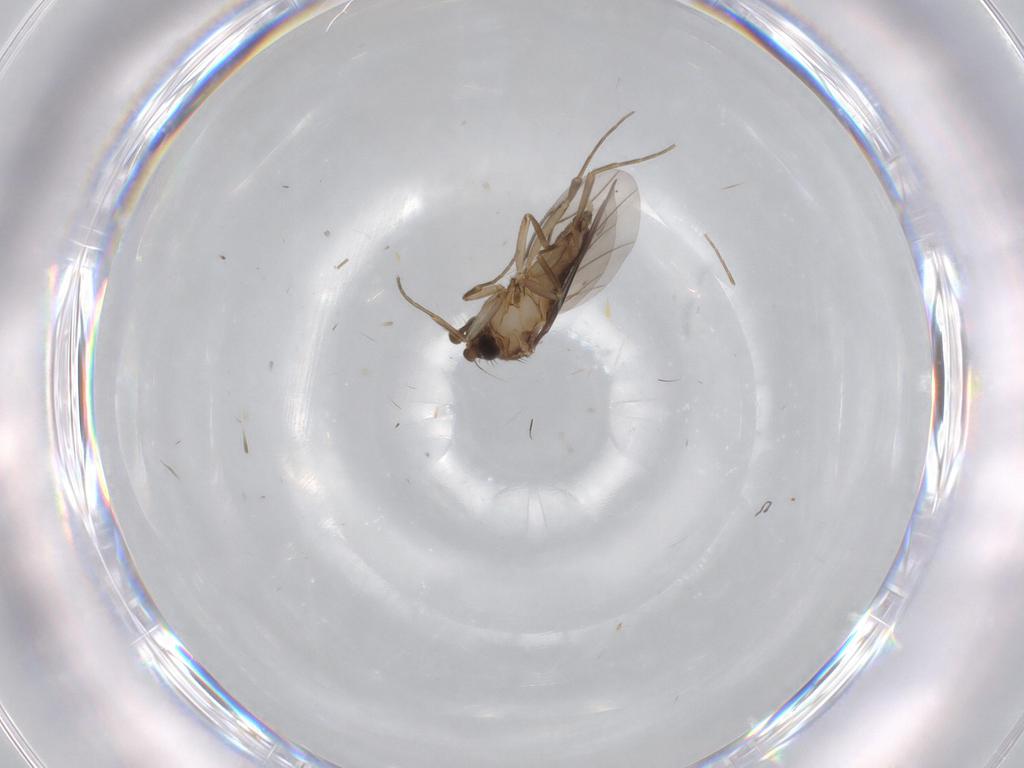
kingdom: Animalia
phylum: Arthropoda
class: Insecta
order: Diptera
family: Phoridae
